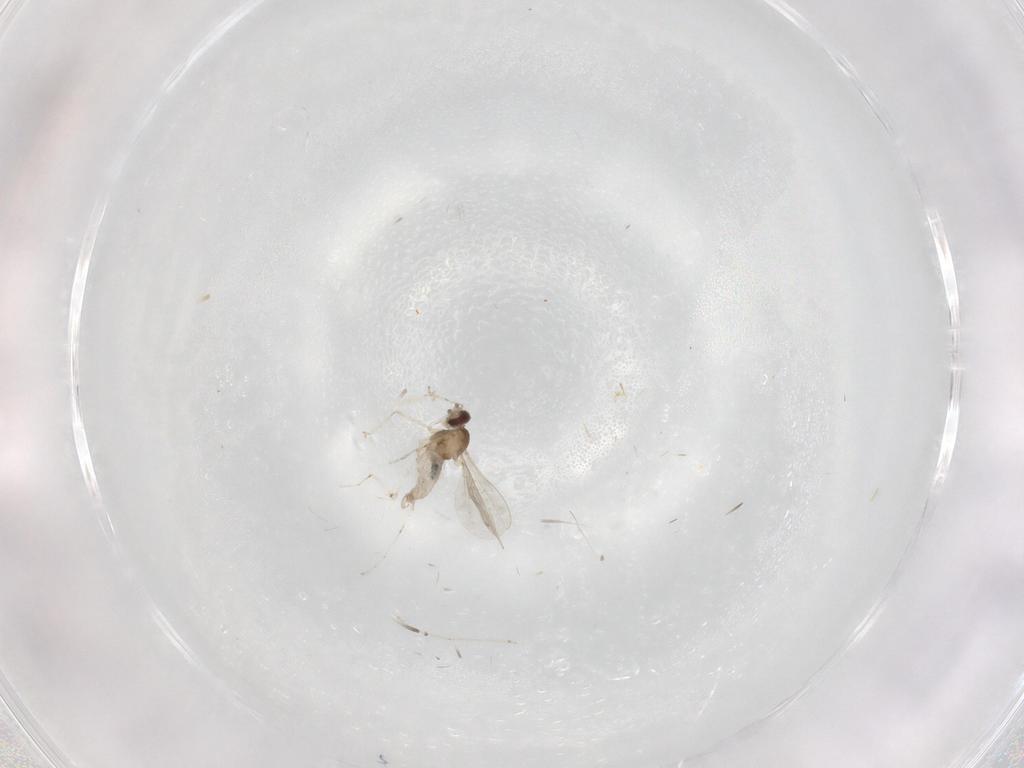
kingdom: Animalia
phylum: Arthropoda
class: Insecta
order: Diptera
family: Cecidomyiidae
